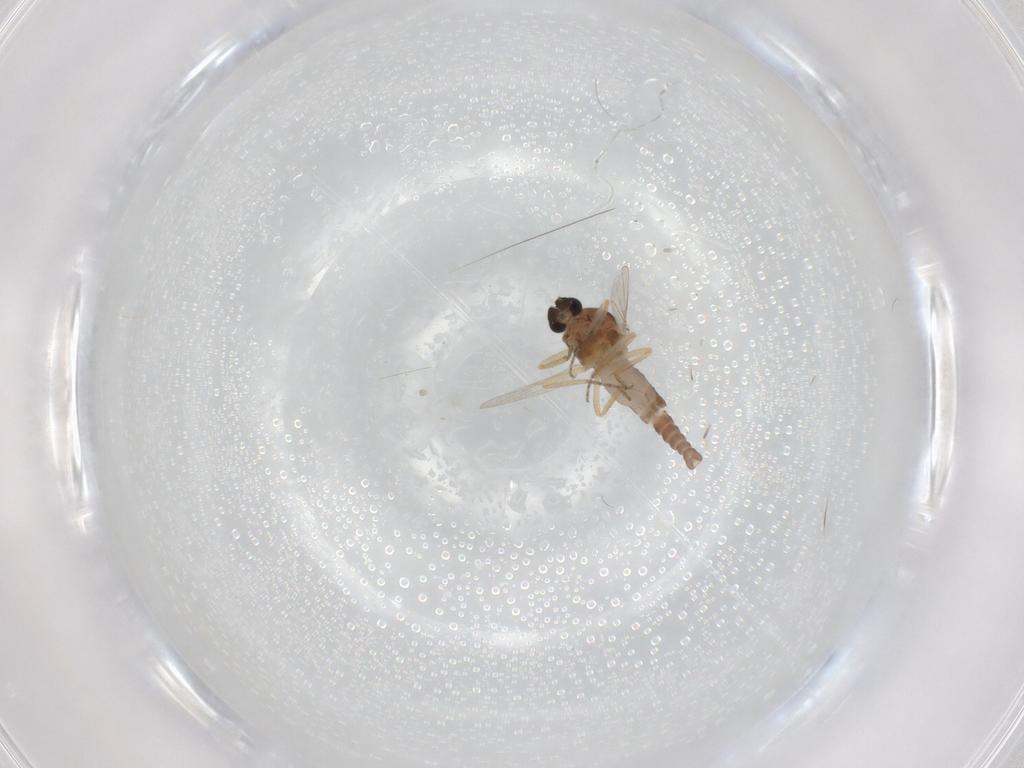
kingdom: Animalia
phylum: Arthropoda
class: Insecta
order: Diptera
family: Ceratopogonidae
